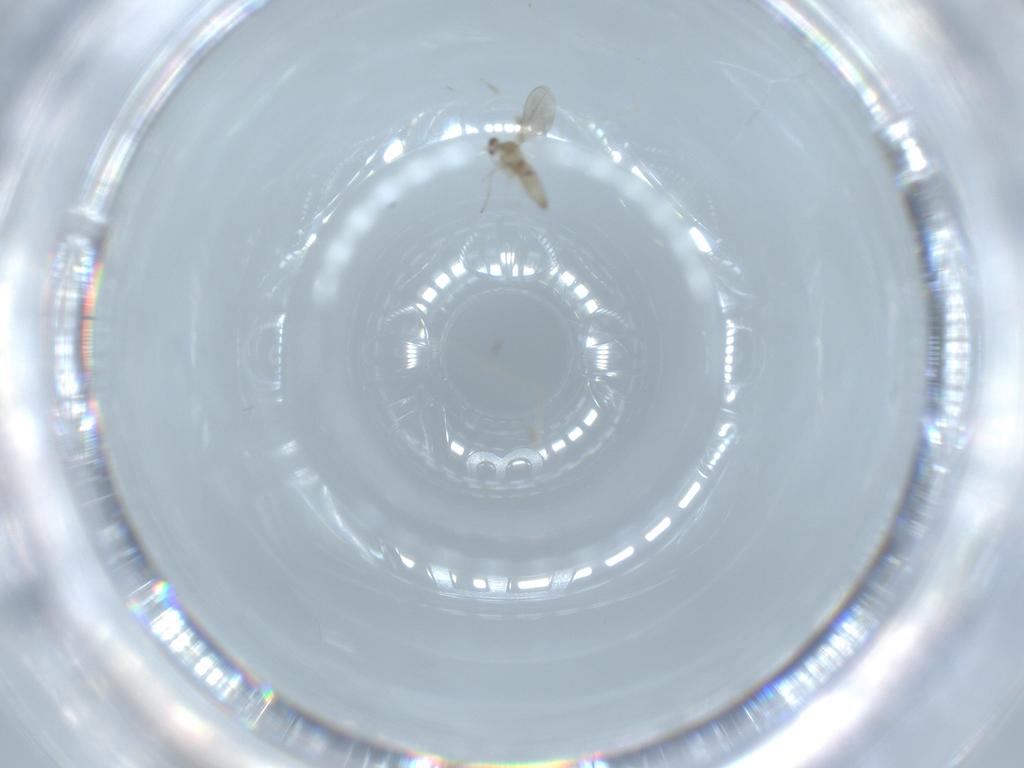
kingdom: Animalia
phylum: Arthropoda
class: Insecta
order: Diptera
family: Cecidomyiidae
